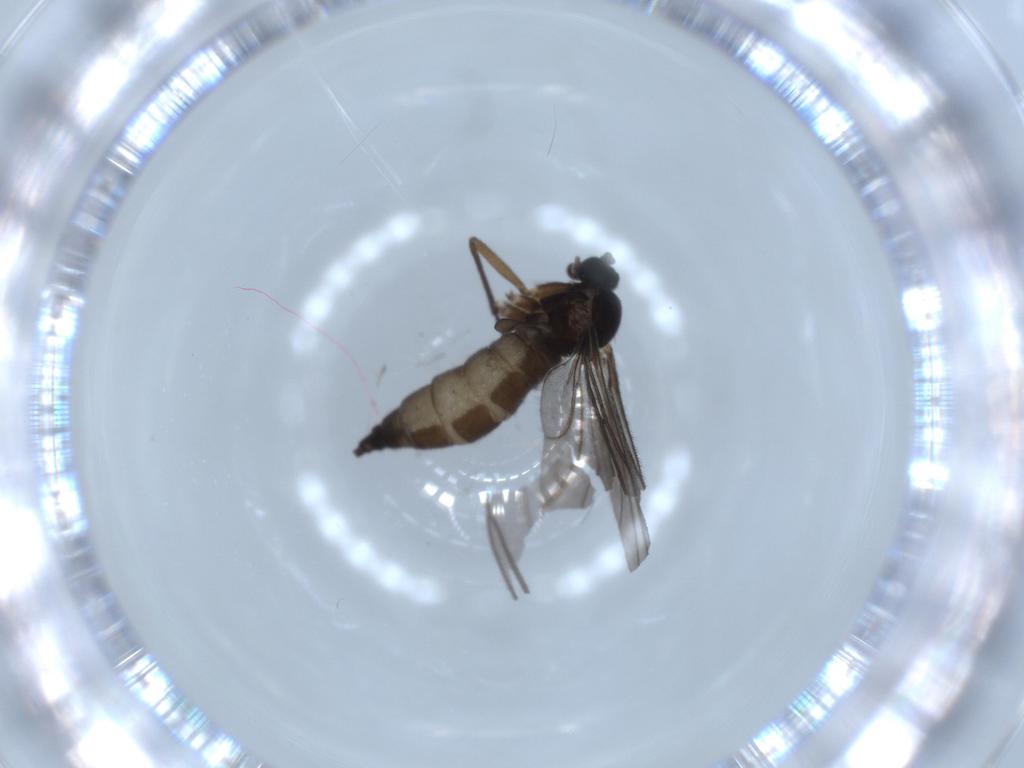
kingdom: Animalia
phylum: Arthropoda
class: Insecta
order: Diptera
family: Sciaridae
